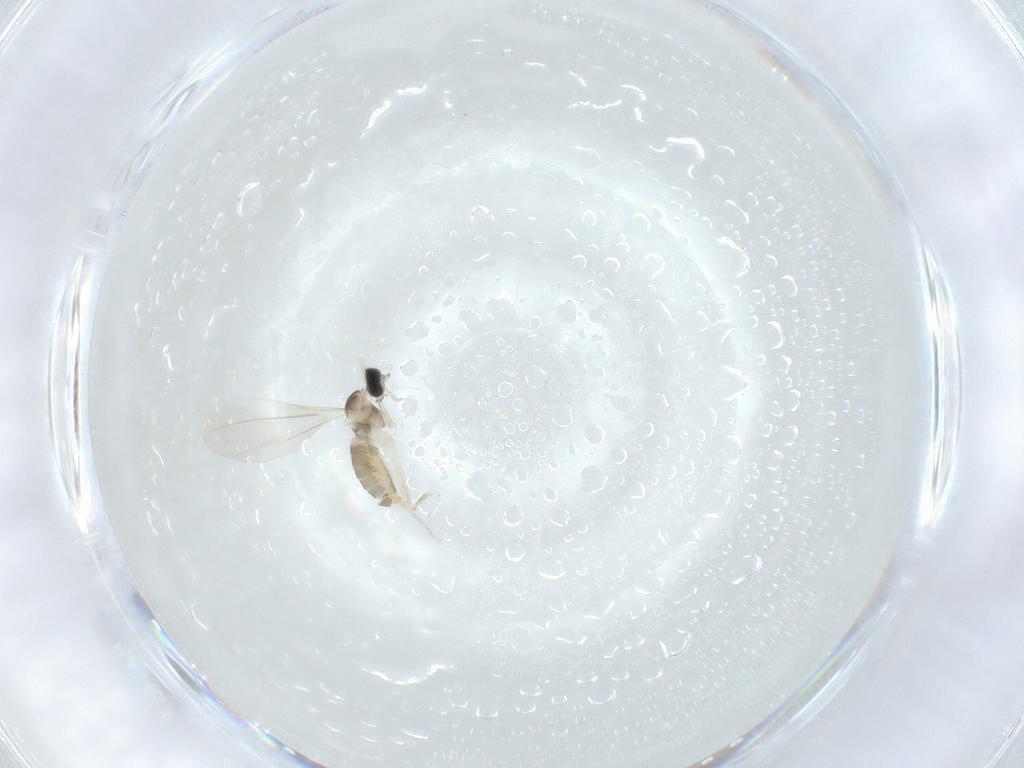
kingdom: Animalia
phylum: Arthropoda
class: Insecta
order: Diptera
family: Cecidomyiidae
